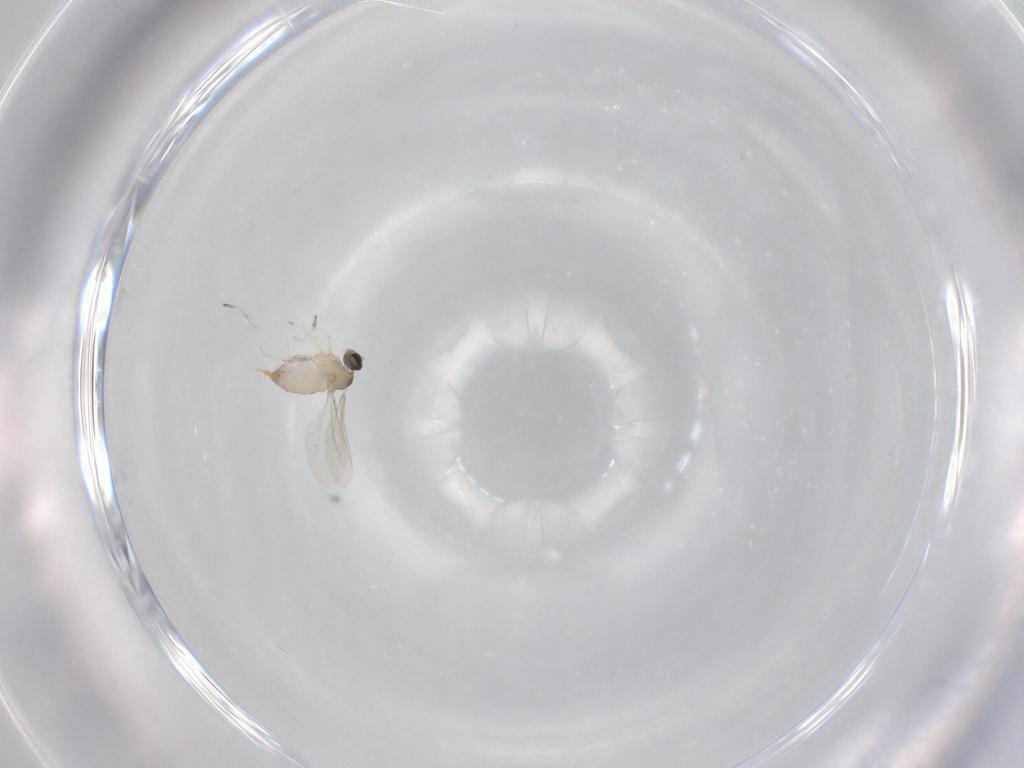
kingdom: Animalia
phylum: Arthropoda
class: Insecta
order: Diptera
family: Cecidomyiidae
